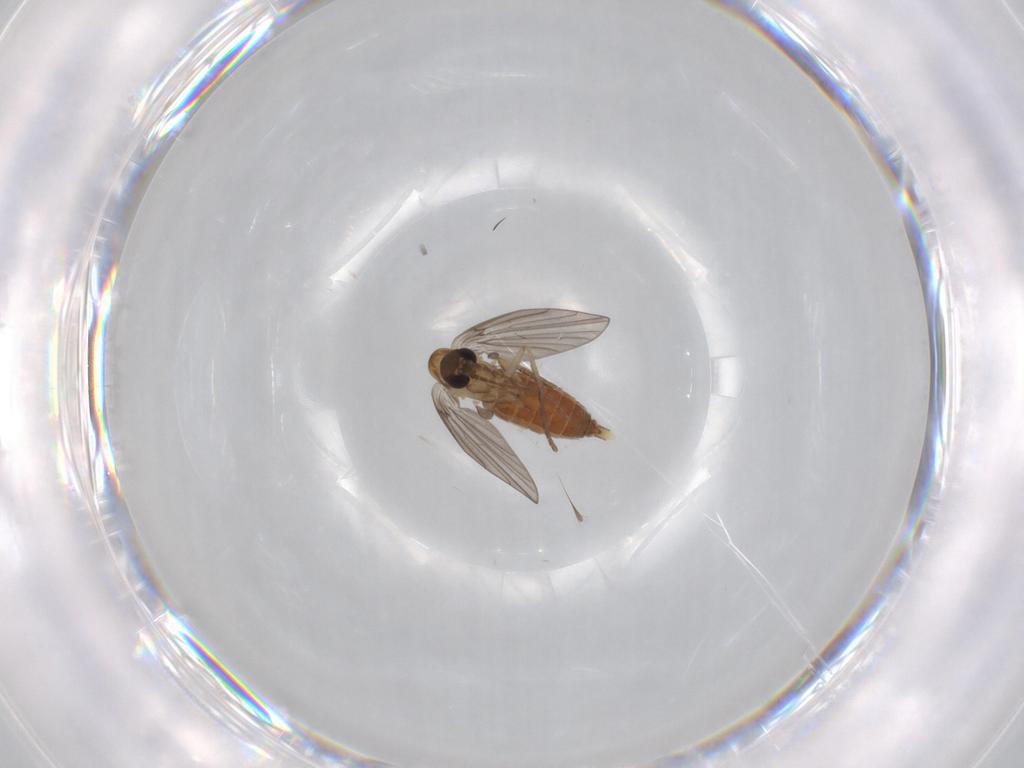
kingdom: Animalia
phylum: Arthropoda
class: Insecta
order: Diptera
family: Agromyzidae
